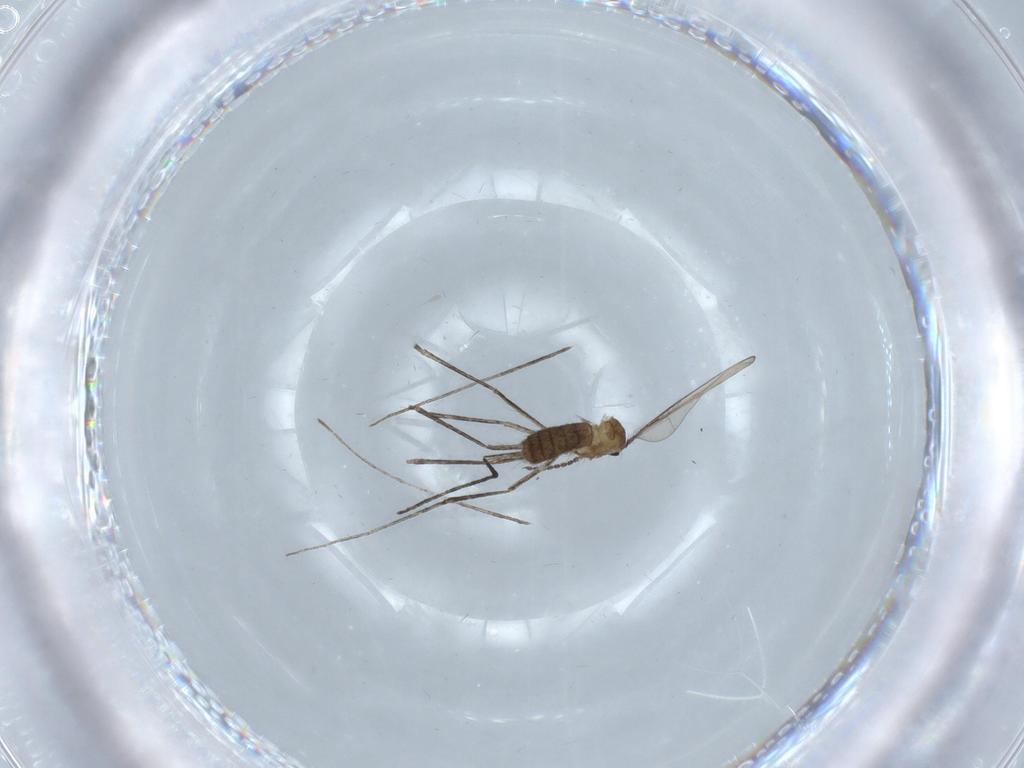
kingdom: Animalia
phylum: Arthropoda
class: Insecta
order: Diptera
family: Cecidomyiidae
